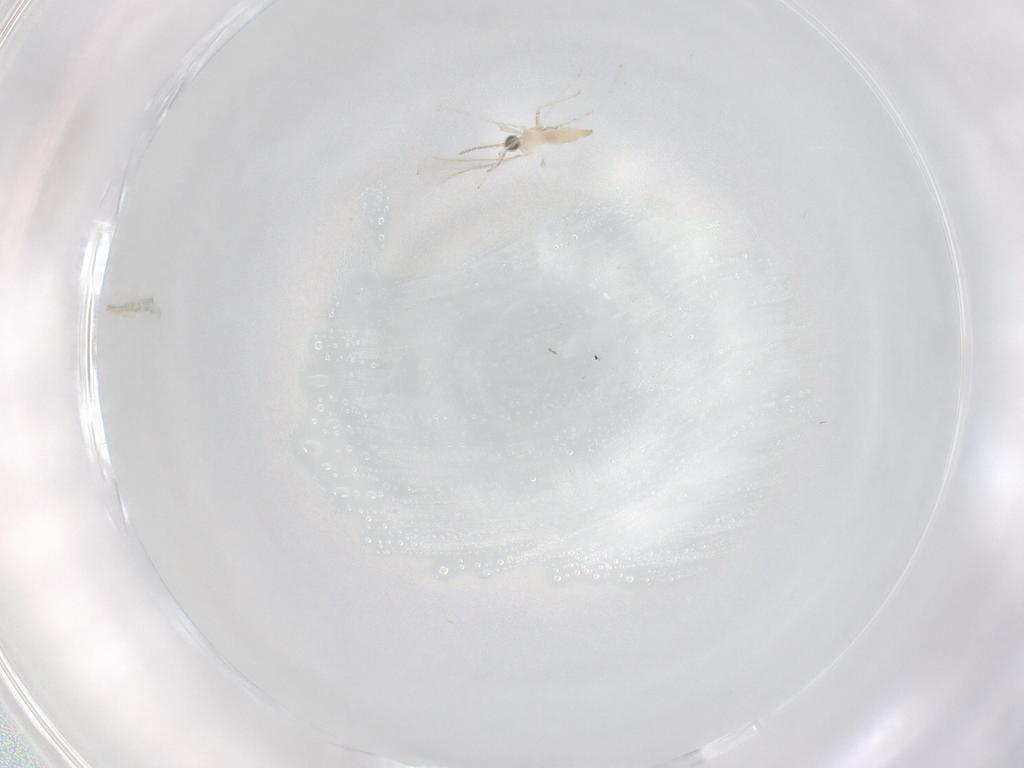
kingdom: Animalia
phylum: Arthropoda
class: Insecta
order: Diptera
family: Cecidomyiidae
